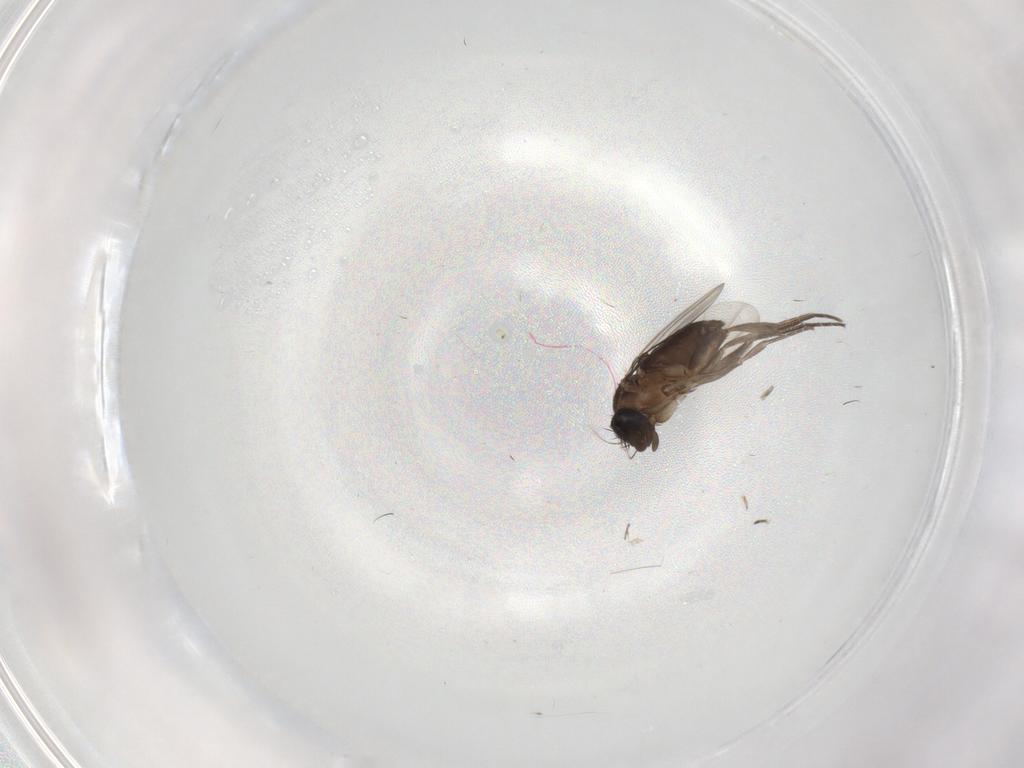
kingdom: Animalia
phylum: Arthropoda
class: Insecta
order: Diptera
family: Phoridae
